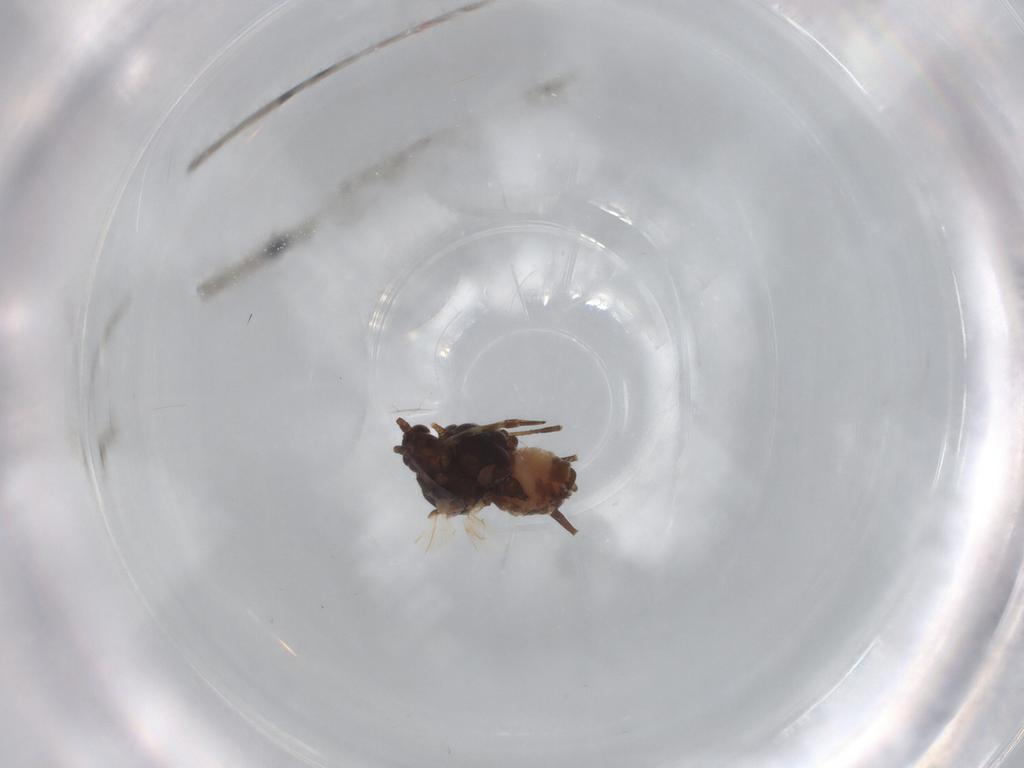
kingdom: Animalia
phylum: Arthropoda
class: Insecta
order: Hemiptera
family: Aphididae
